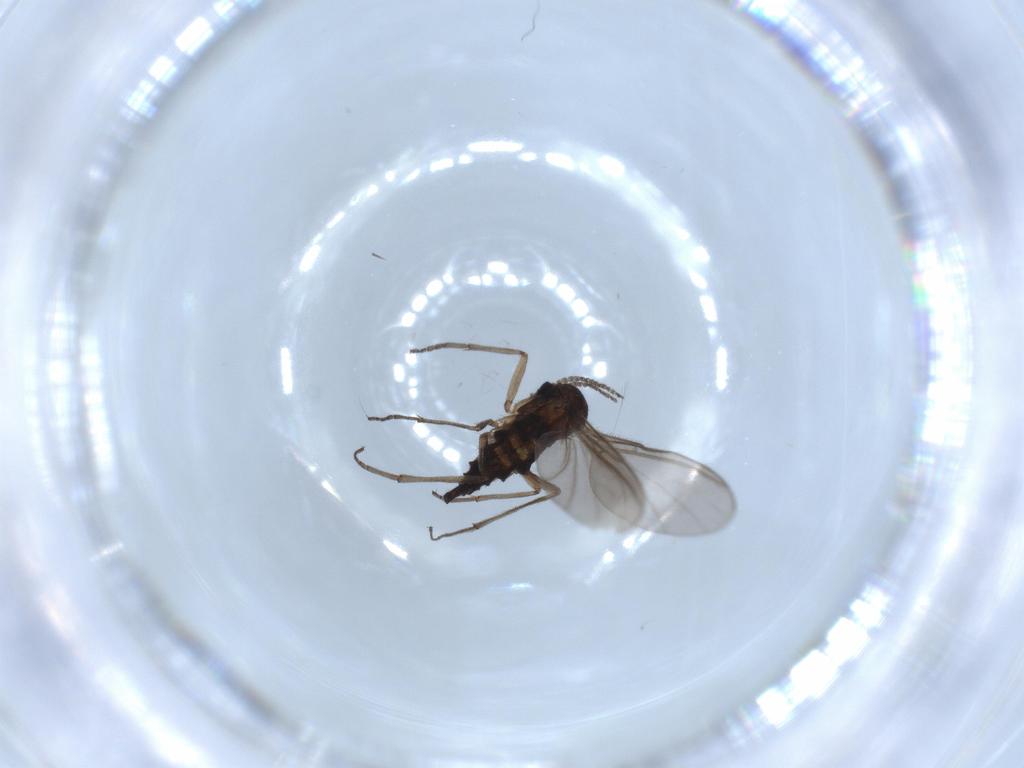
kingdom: Animalia
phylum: Arthropoda
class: Insecta
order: Diptera
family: Sciaridae
